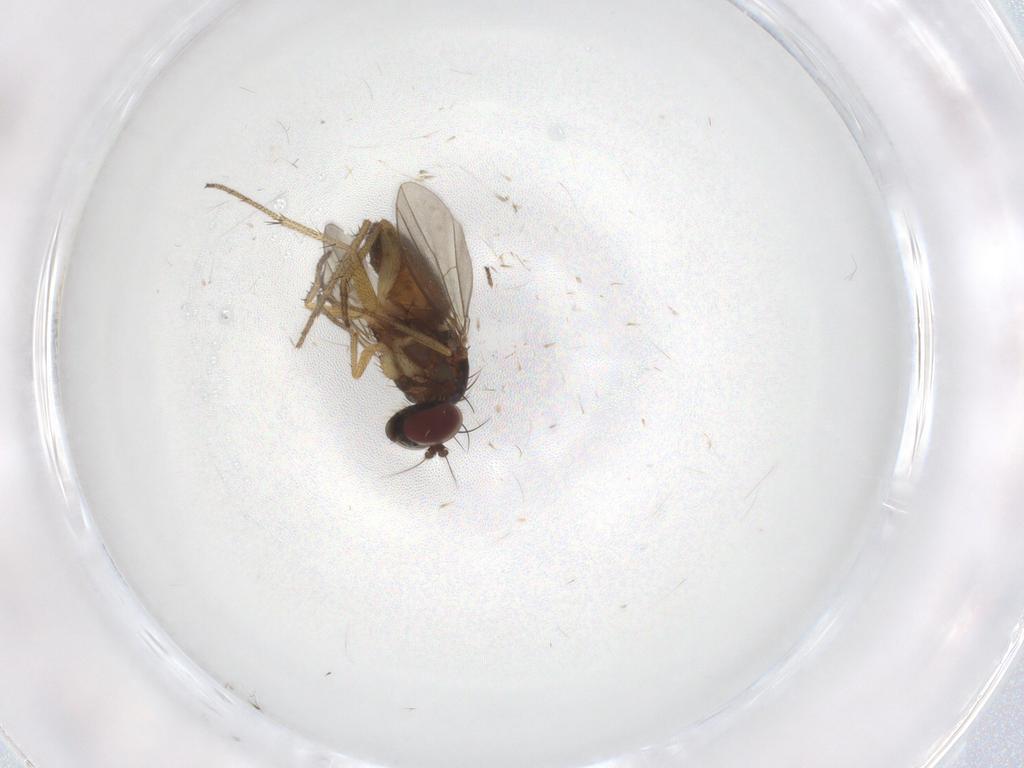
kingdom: Animalia
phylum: Arthropoda
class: Insecta
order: Diptera
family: Dolichopodidae
